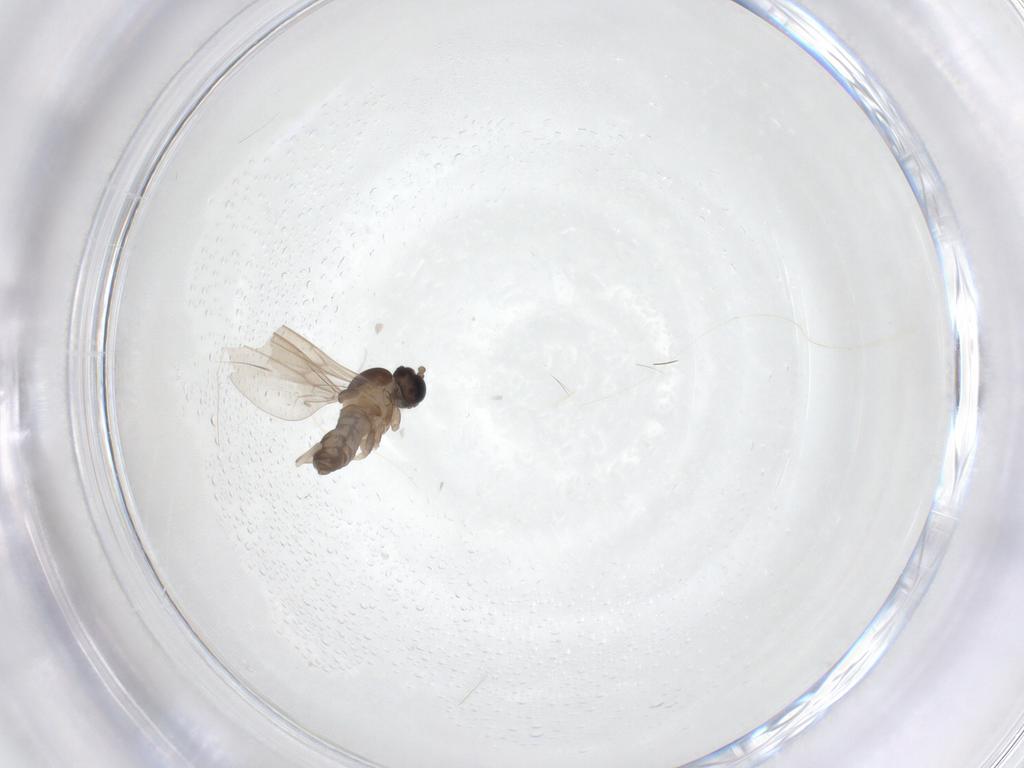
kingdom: Animalia
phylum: Arthropoda
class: Insecta
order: Diptera
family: Cecidomyiidae
